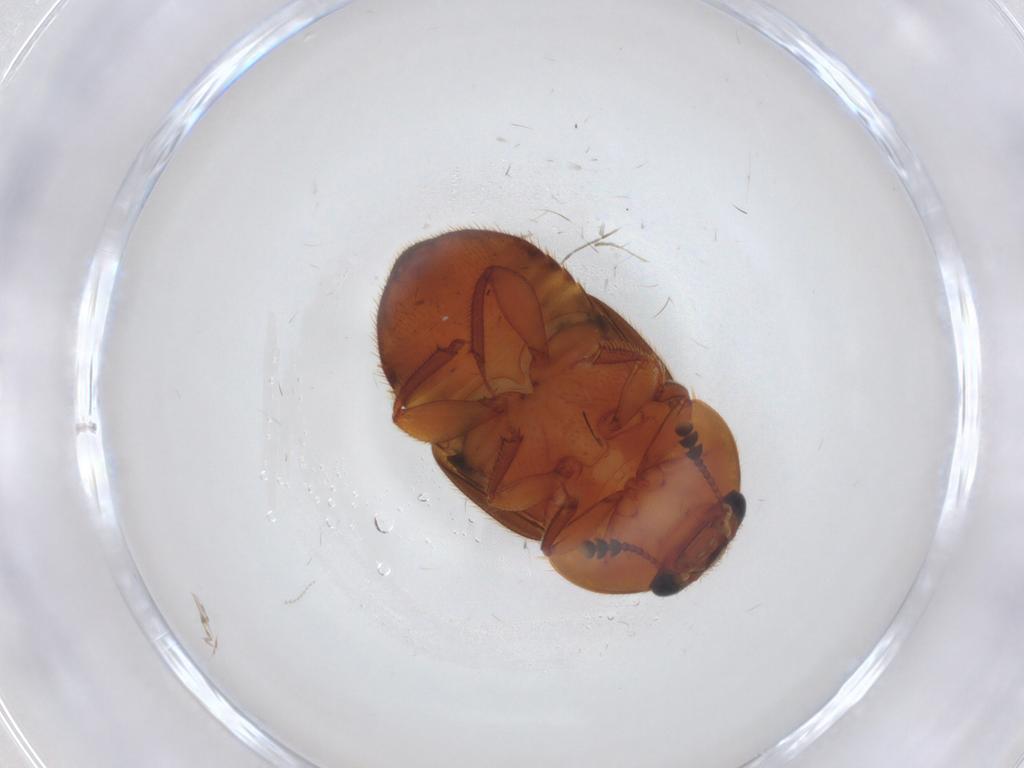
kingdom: Animalia
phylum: Arthropoda
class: Insecta
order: Coleoptera
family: Nitidulidae
